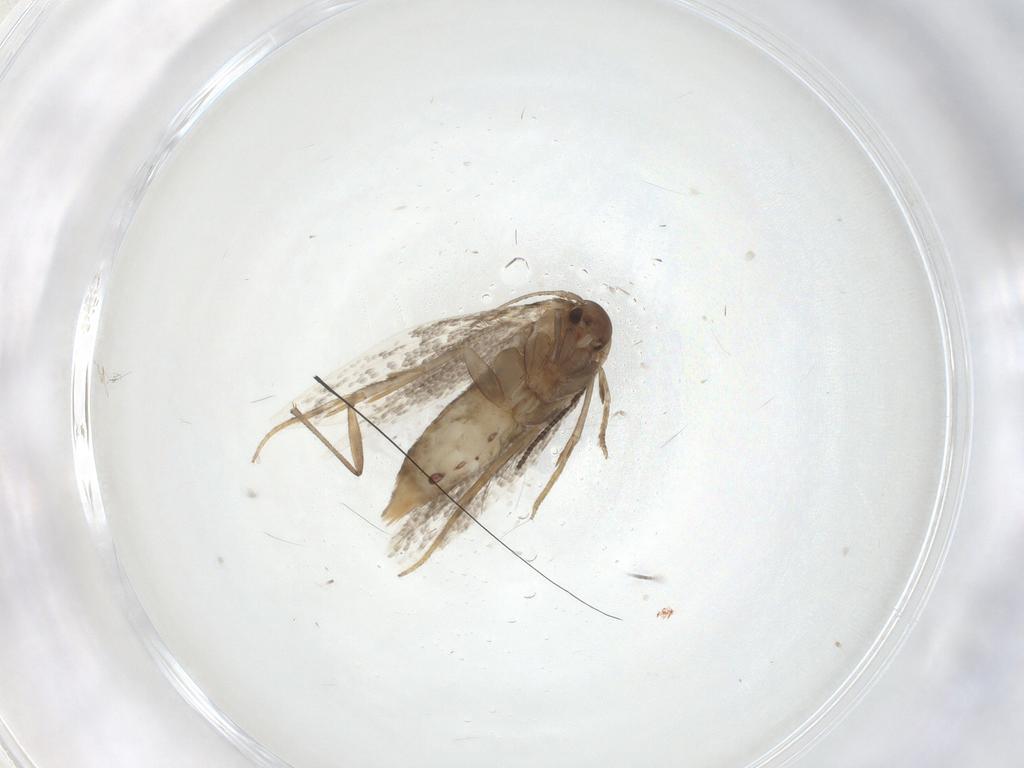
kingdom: Animalia
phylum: Arthropoda
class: Insecta
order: Lepidoptera
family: Elachistidae
